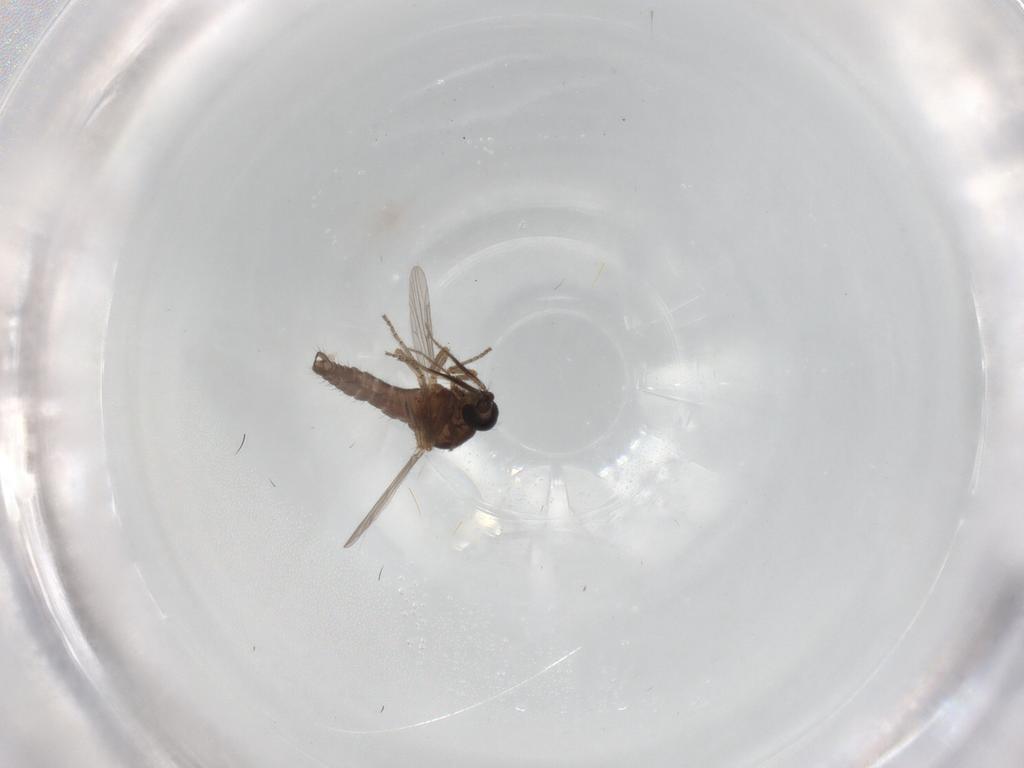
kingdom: Animalia
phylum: Arthropoda
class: Insecta
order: Diptera
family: Ceratopogonidae
